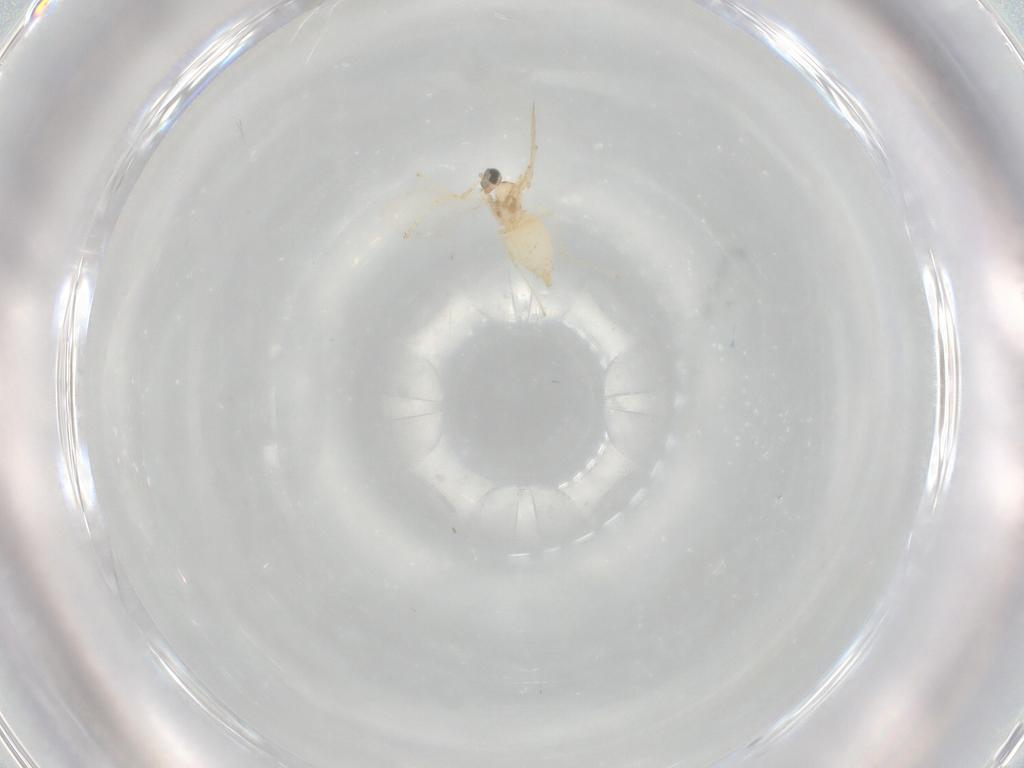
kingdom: Animalia
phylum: Arthropoda
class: Insecta
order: Diptera
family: Cecidomyiidae
